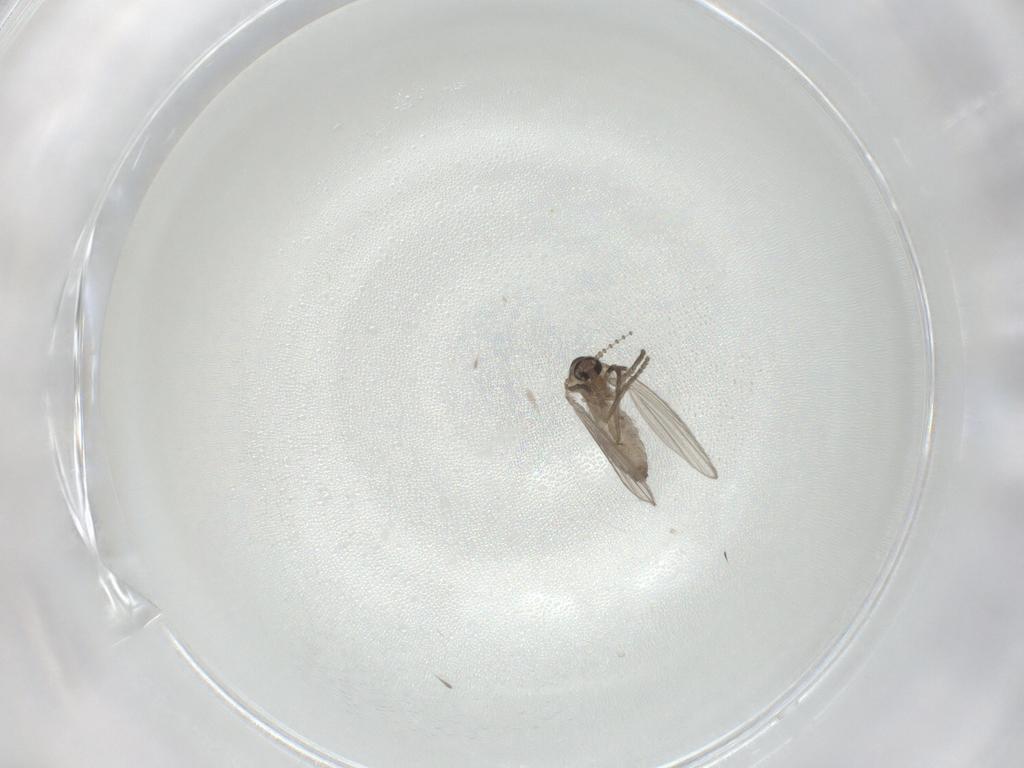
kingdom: Animalia
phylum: Arthropoda
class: Insecta
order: Diptera
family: Psychodidae
